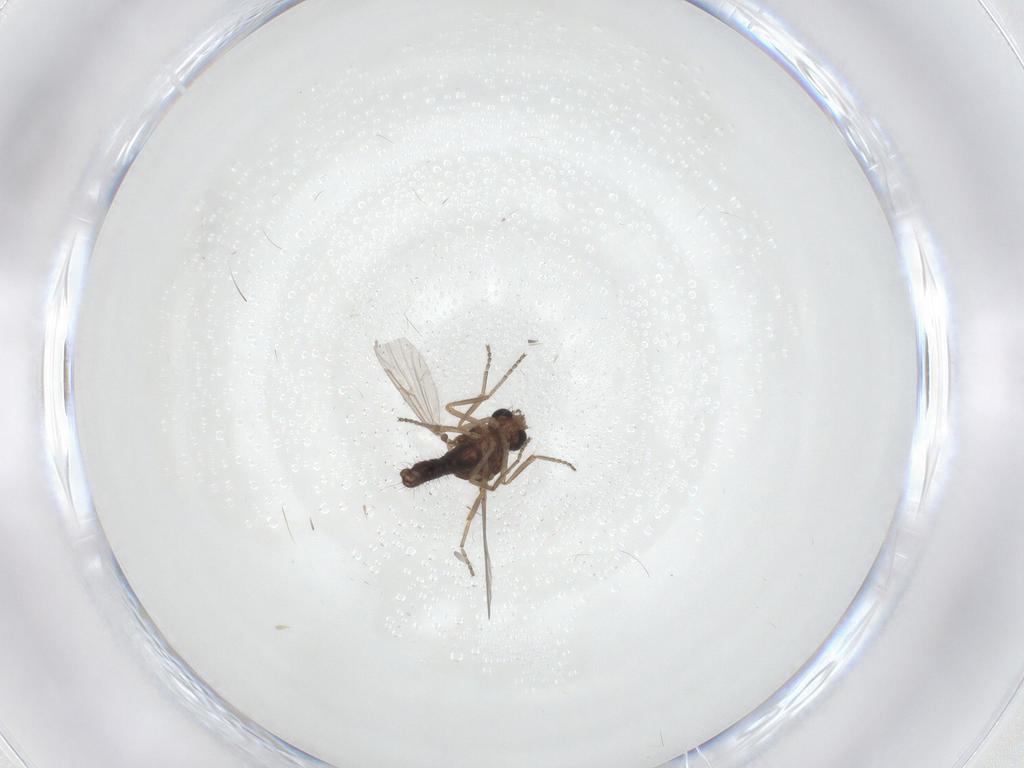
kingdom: Animalia
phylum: Arthropoda
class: Insecta
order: Diptera
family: Ceratopogonidae
